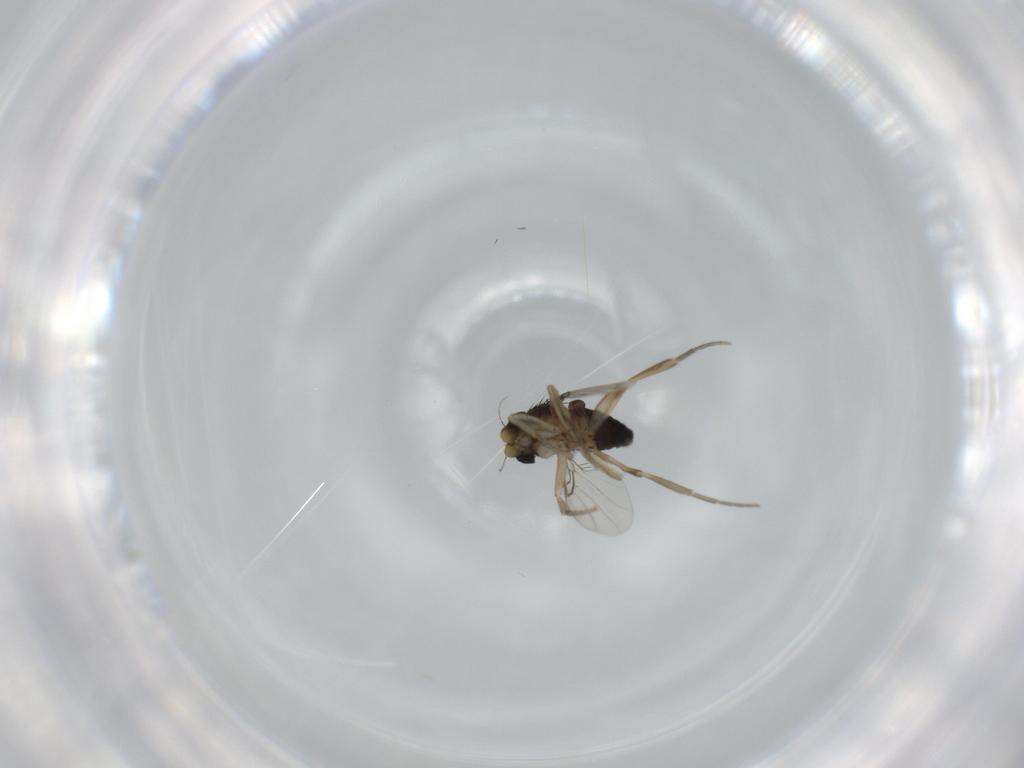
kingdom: Animalia
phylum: Arthropoda
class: Insecta
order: Diptera
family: Phoridae
